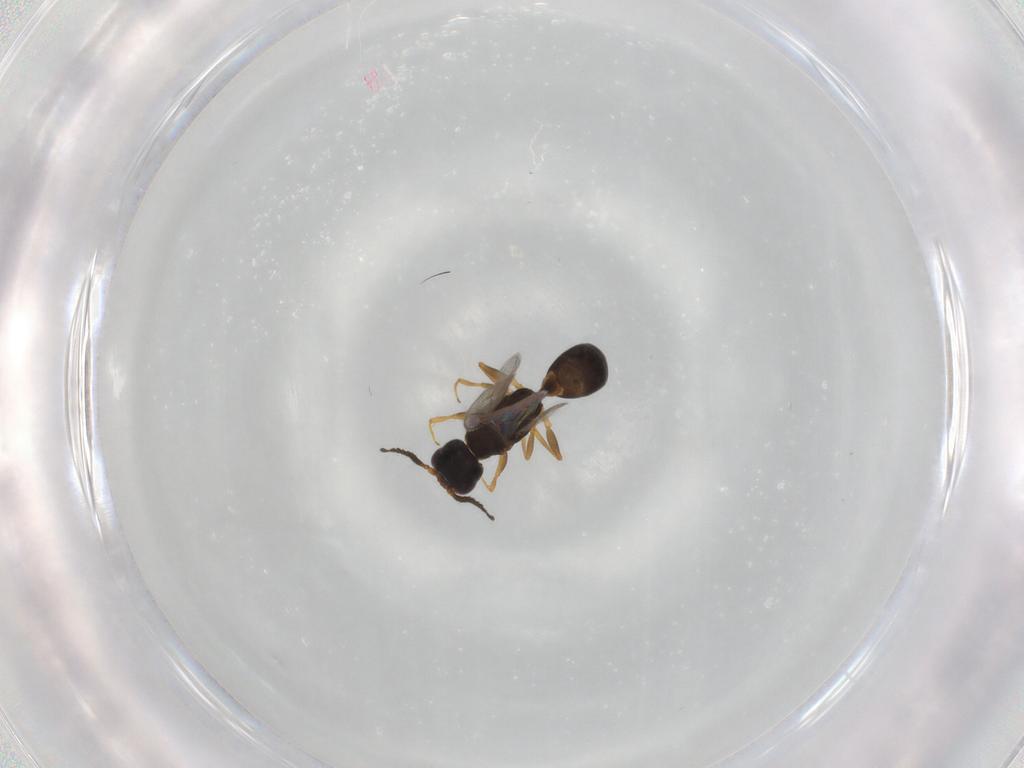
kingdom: Animalia
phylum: Arthropoda
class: Insecta
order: Hymenoptera
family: Bethylidae
